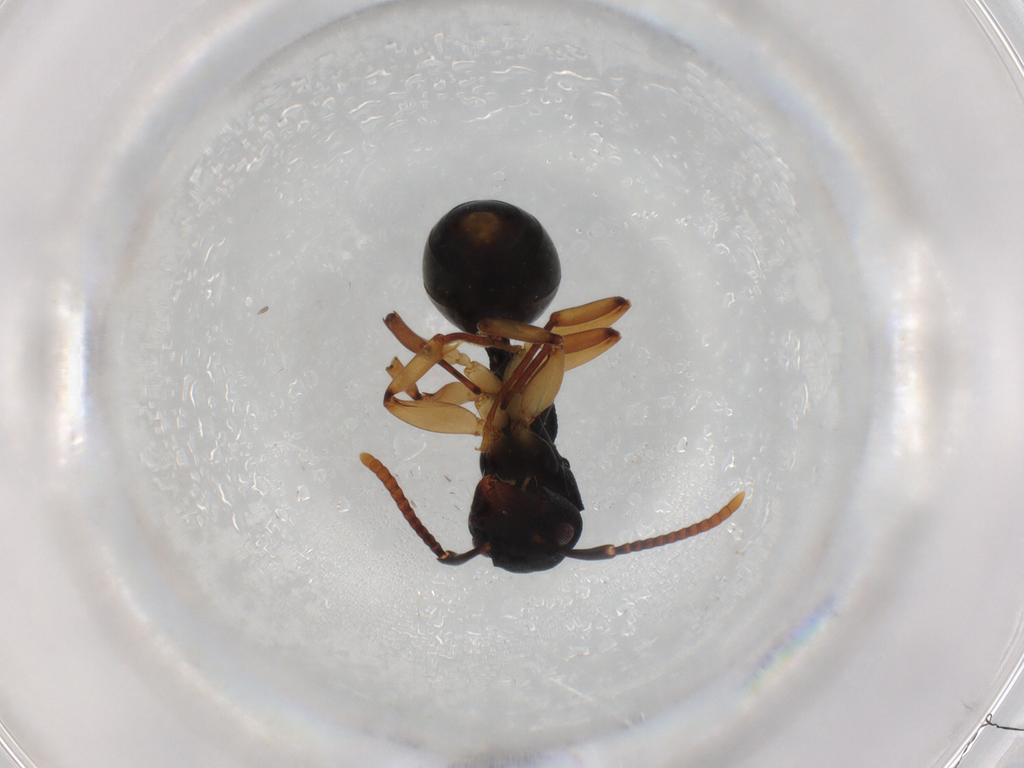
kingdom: Animalia
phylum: Arthropoda
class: Insecta
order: Hymenoptera
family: Formicidae
